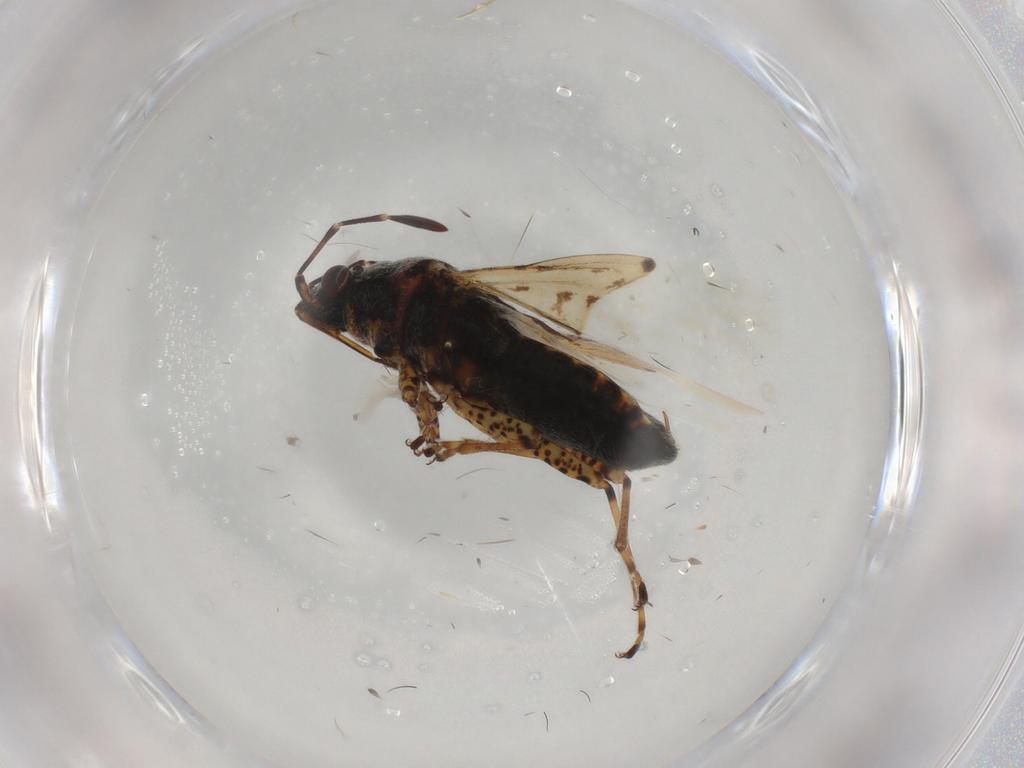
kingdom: Animalia
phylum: Arthropoda
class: Insecta
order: Hemiptera
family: Lygaeidae
